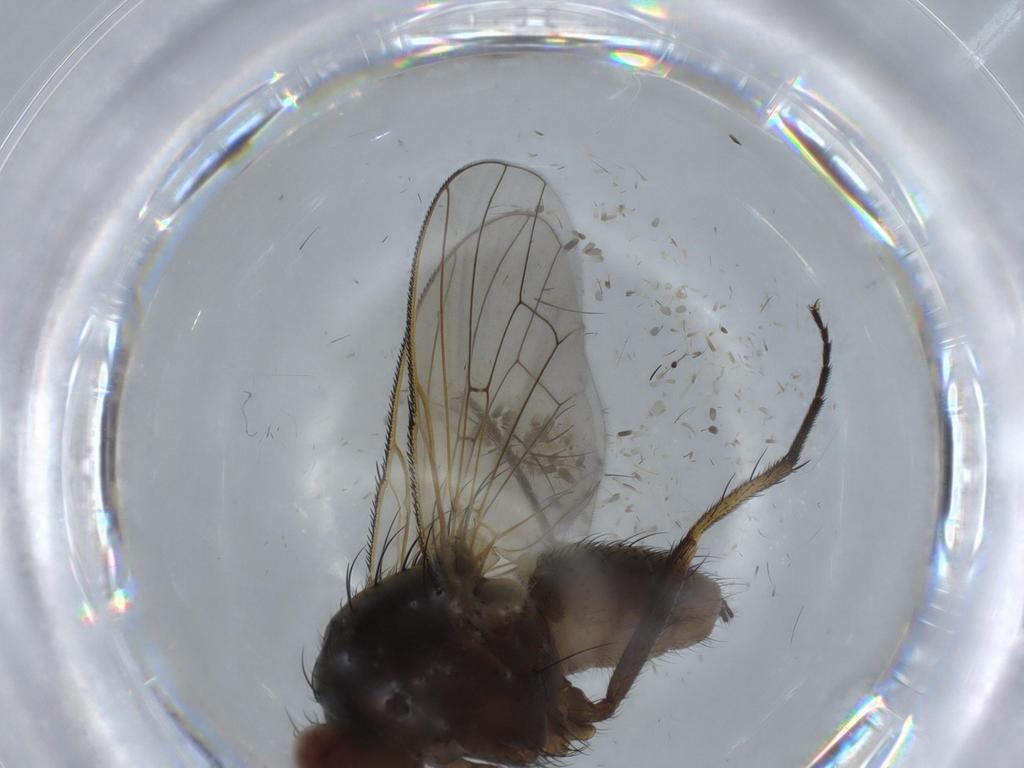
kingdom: Animalia
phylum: Arthropoda
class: Insecta
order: Diptera
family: Anthomyiidae
